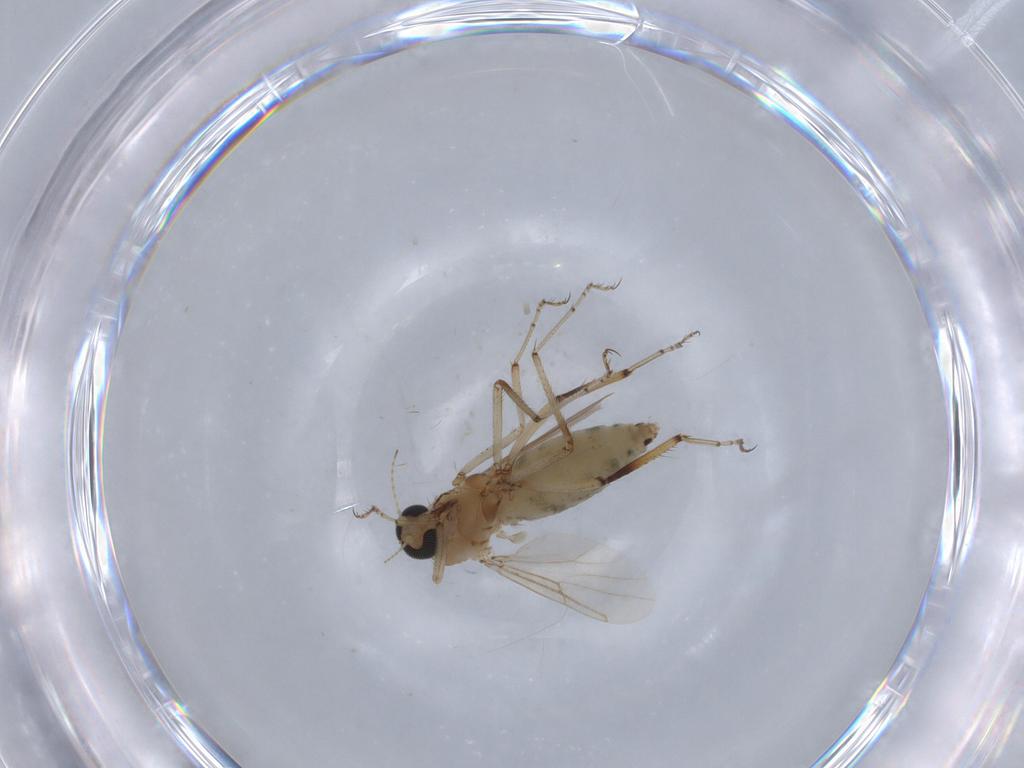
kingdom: Animalia
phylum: Arthropoda
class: Insecta
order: Diptera
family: Ceratopogonidae
